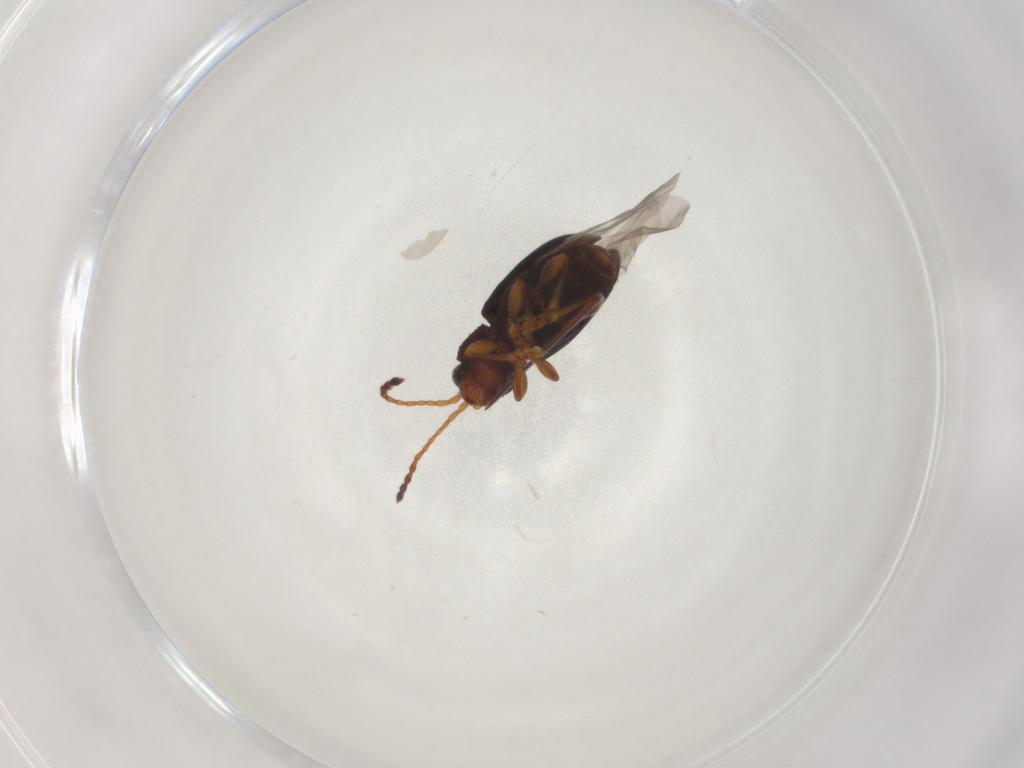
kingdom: Animalia
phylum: Arthropoda
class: Insecta
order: Coleoptera
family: Chrysomelidae
